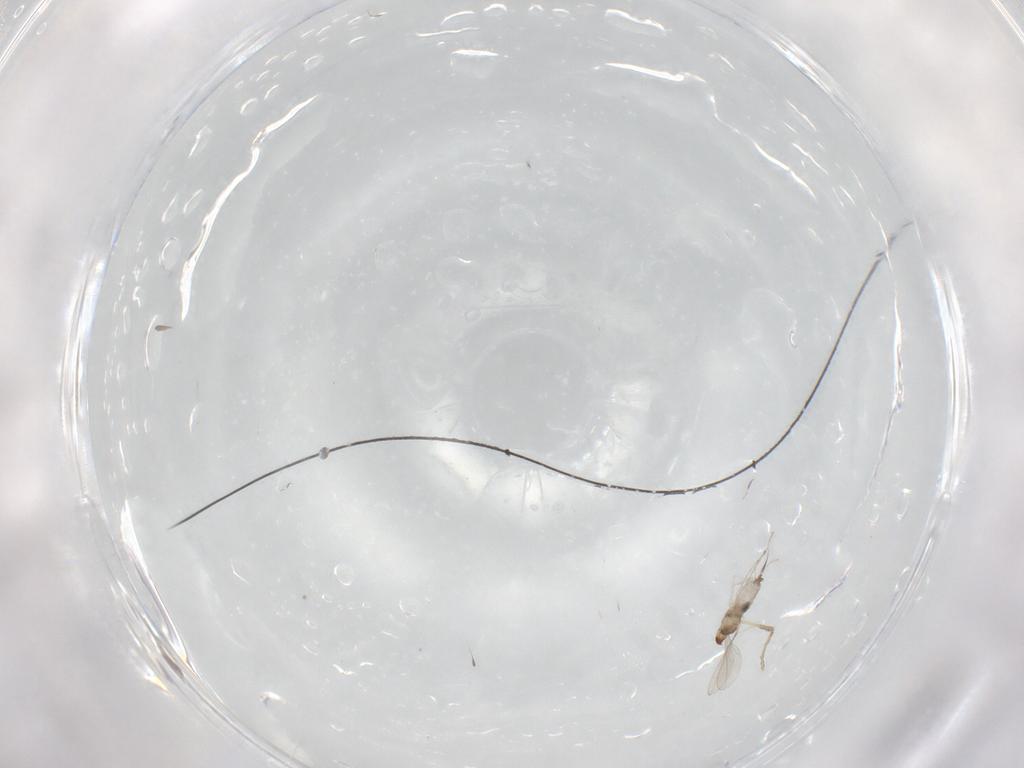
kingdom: Animalia
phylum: Arthropoda
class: Insecta
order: Diptera
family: Cecidomyiidae
